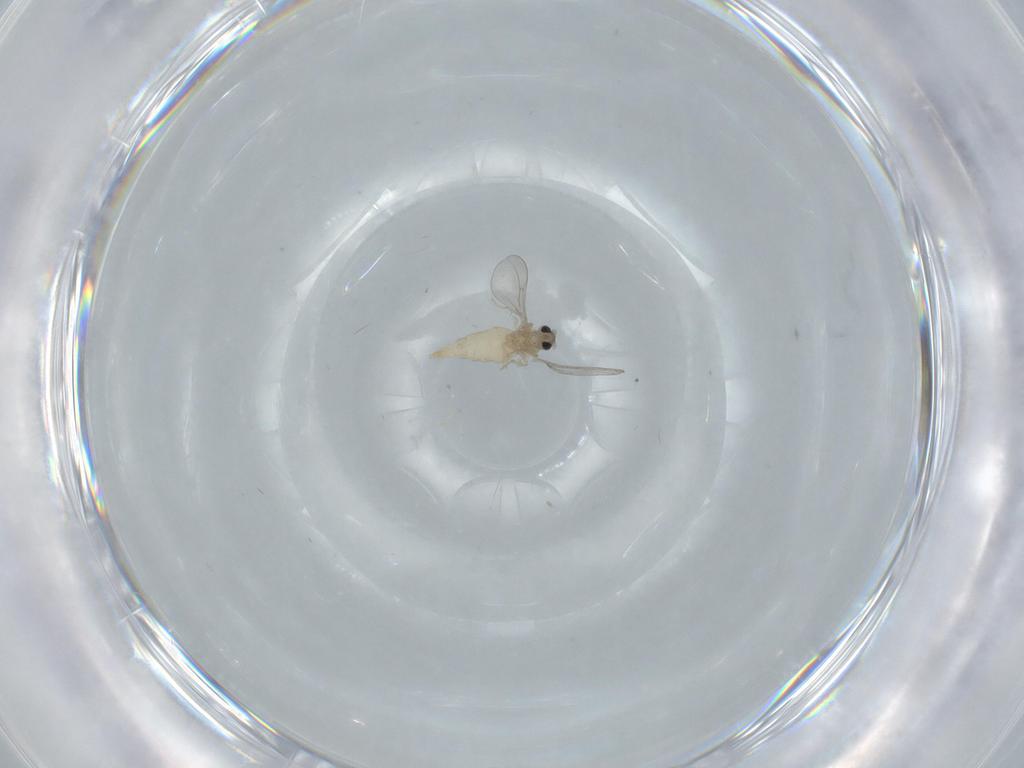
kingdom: Animalia
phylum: Arthropoda
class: Insecta
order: Diptera
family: Cecidomyiidae
